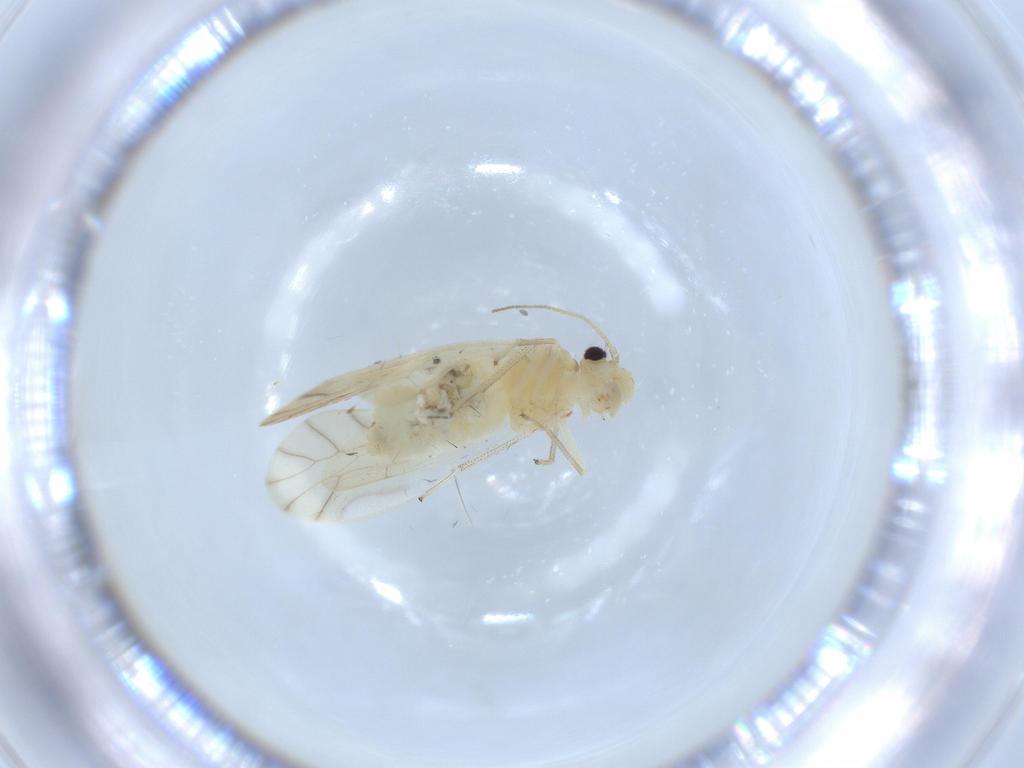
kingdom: Animalia
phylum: Arthropoda
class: Insecta
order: Psocodea
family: Caeciliusidae
